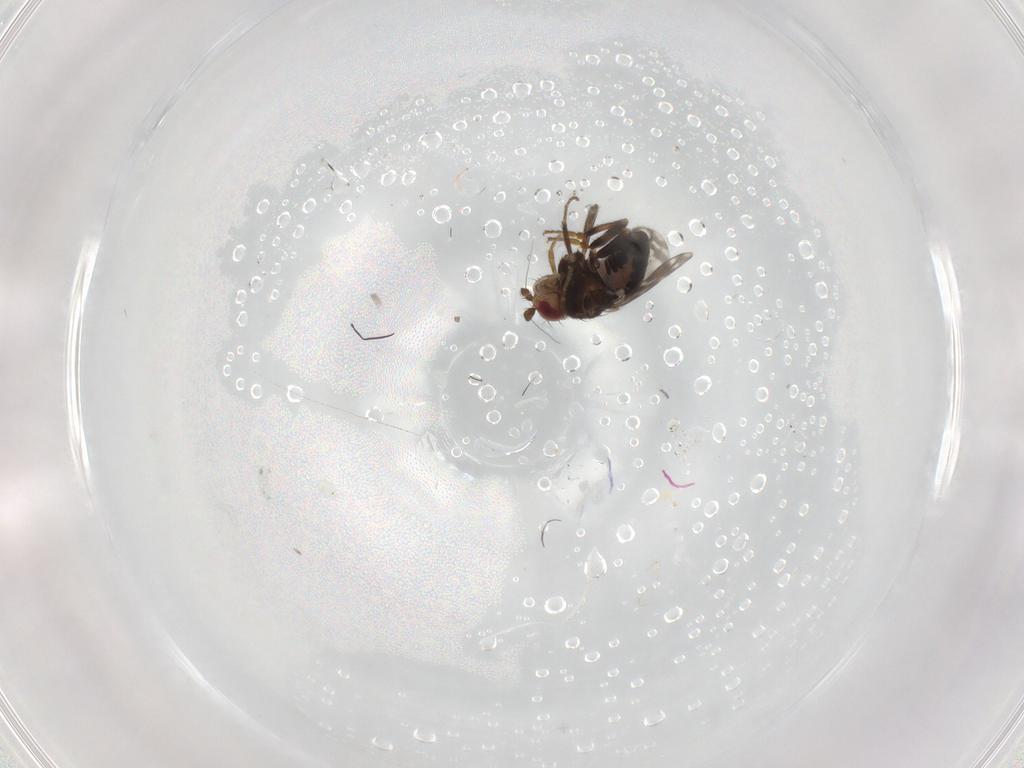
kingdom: Animalia
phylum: Arthropoda
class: Insecta
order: Diptera
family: Sphaeroceridae
